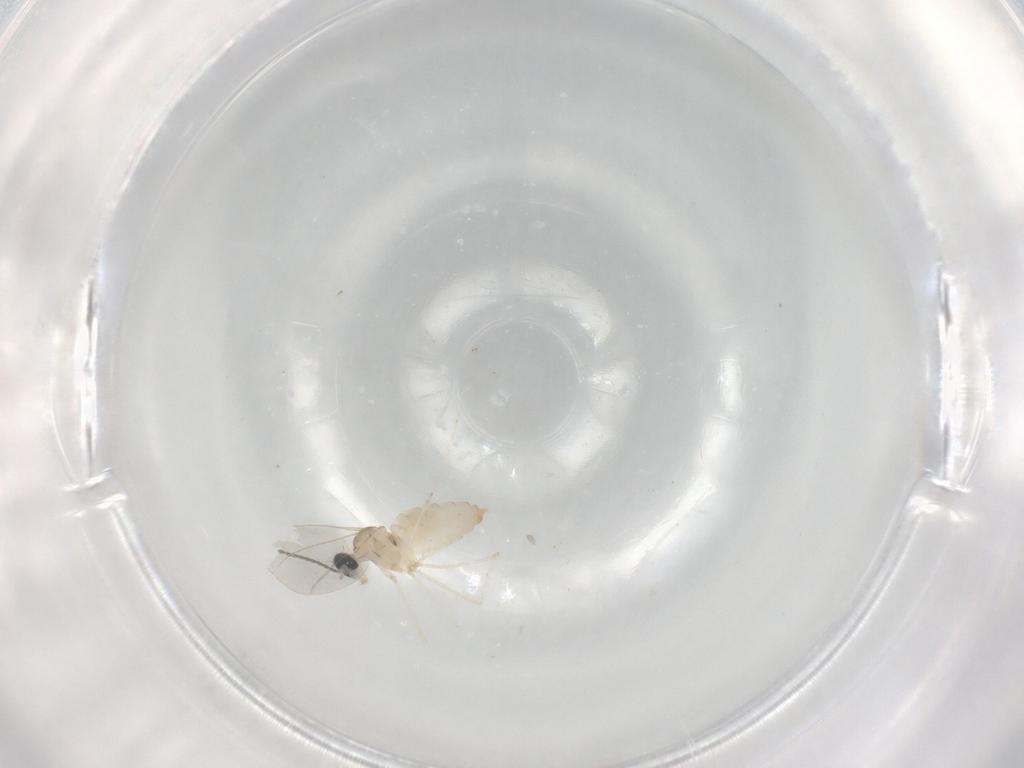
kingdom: Animalia
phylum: Arthropoda
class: Insecta
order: Diptera
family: Cecidomyiidae
